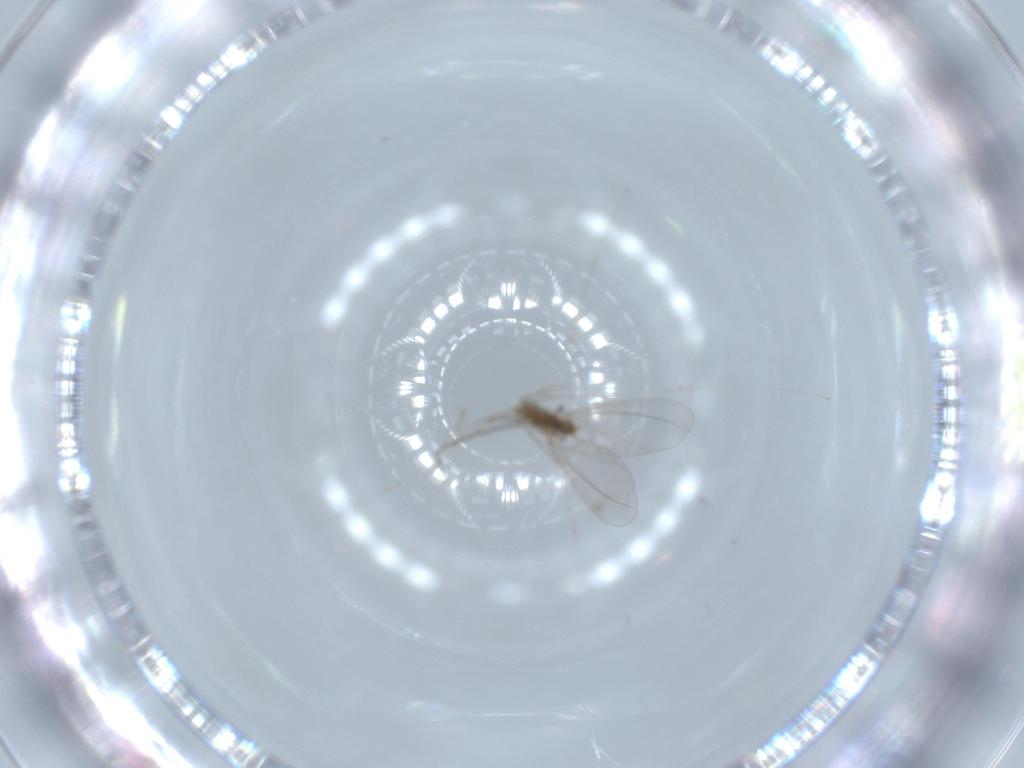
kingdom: Animalia
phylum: Arthropoda
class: Insecta
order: Diptera
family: Cecidomyiidae
